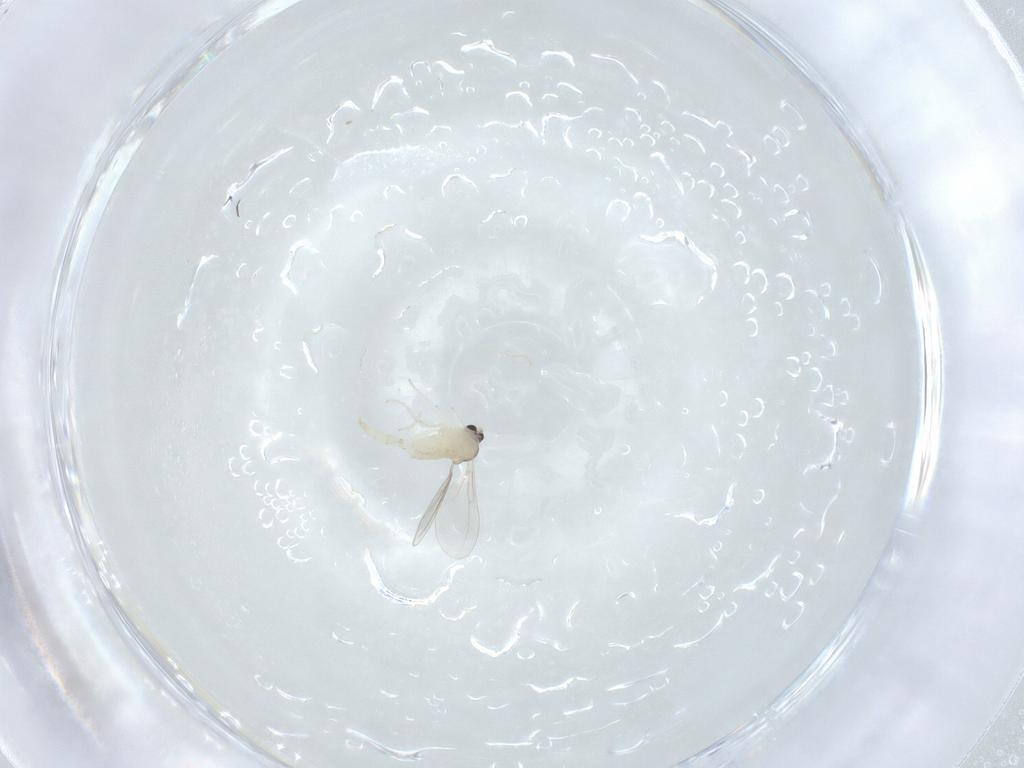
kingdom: Animalia
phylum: Arthropoda
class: Insecta
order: Diptera
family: Cecidomyiidae
